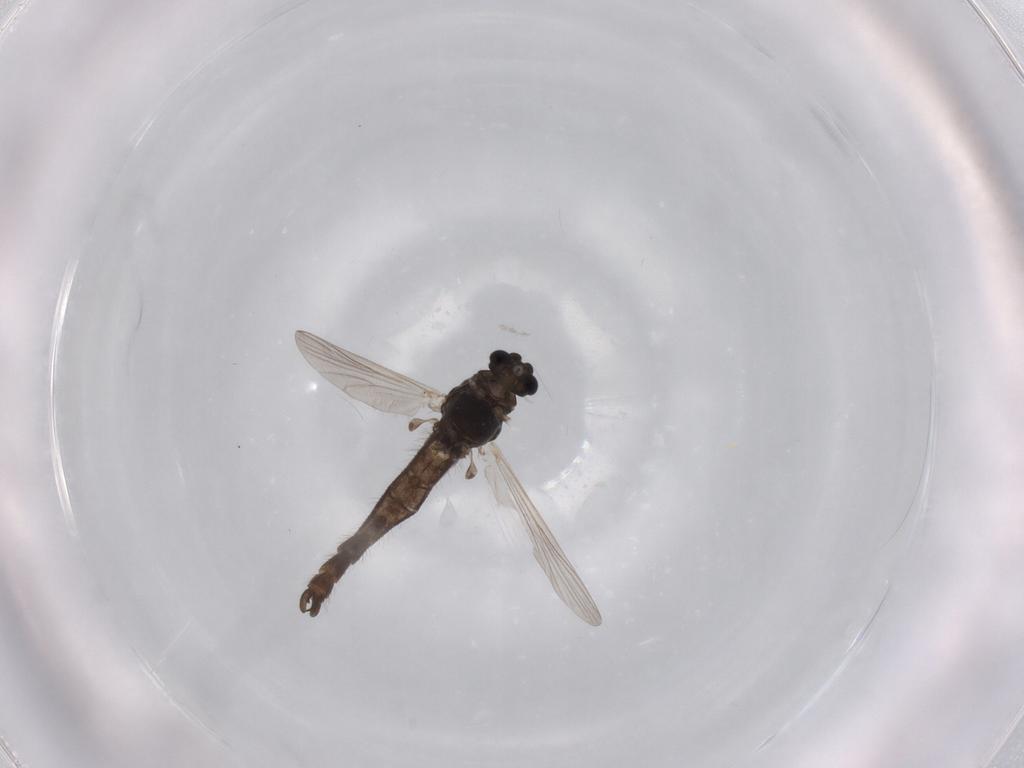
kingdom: Animalia
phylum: Arthropoda
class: Insecta
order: Diptera
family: Chironomidae
